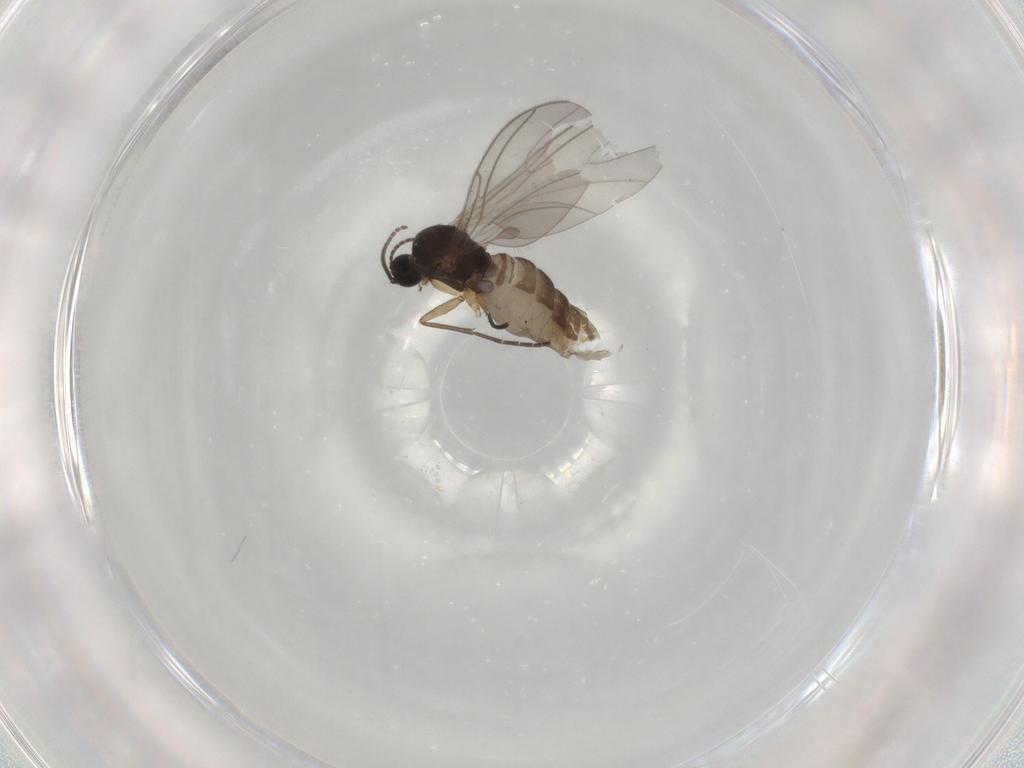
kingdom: Animalia
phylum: Arthropoda
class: Insecta
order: Diptera
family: Sciaridae
